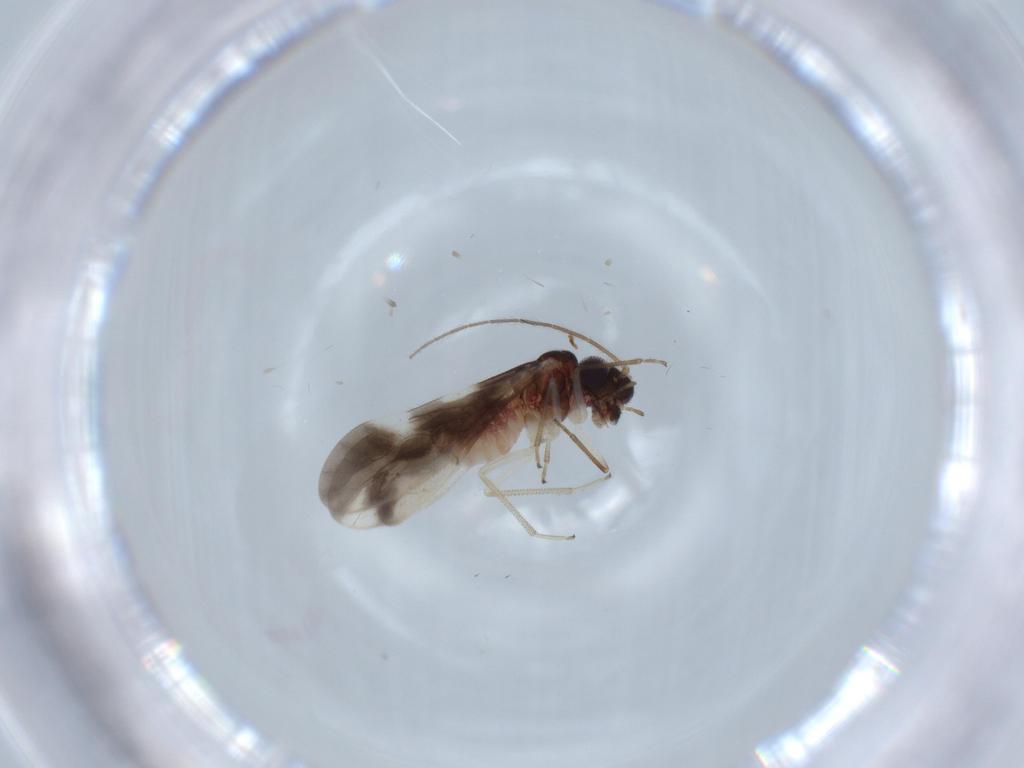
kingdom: Animalia
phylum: Arthropoda
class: Insecta
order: Psocodea
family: Caeciliusidae
